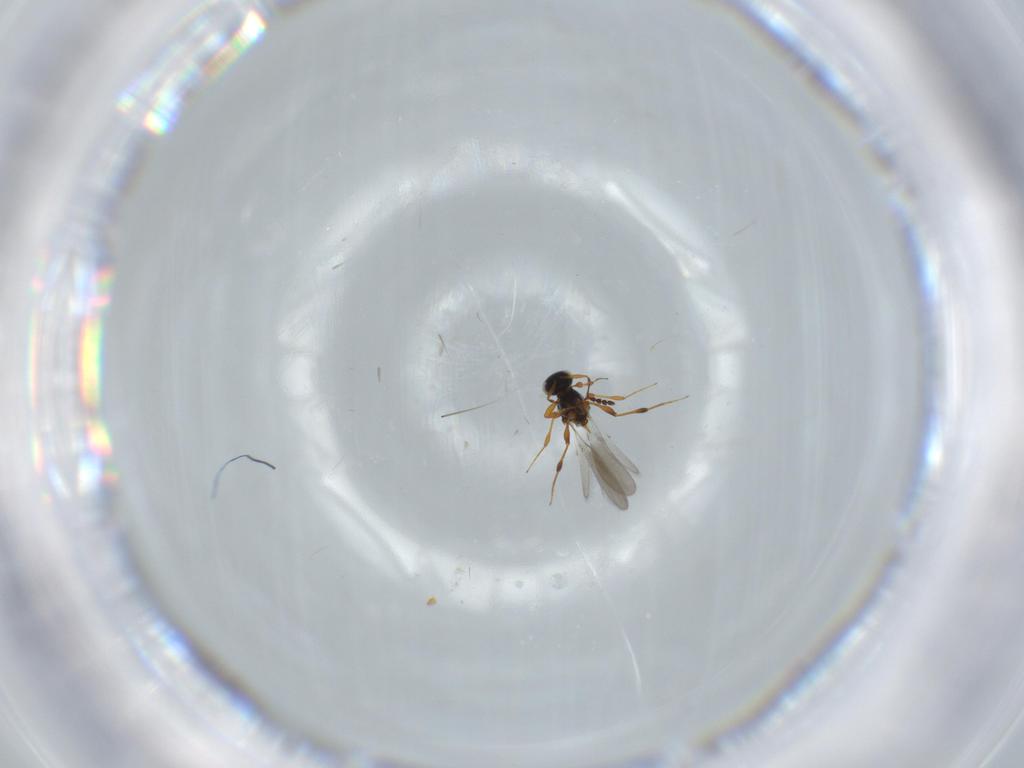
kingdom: Animalia
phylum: Arthropoda
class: Insecta
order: Hymenoptera
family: Platygastridae
